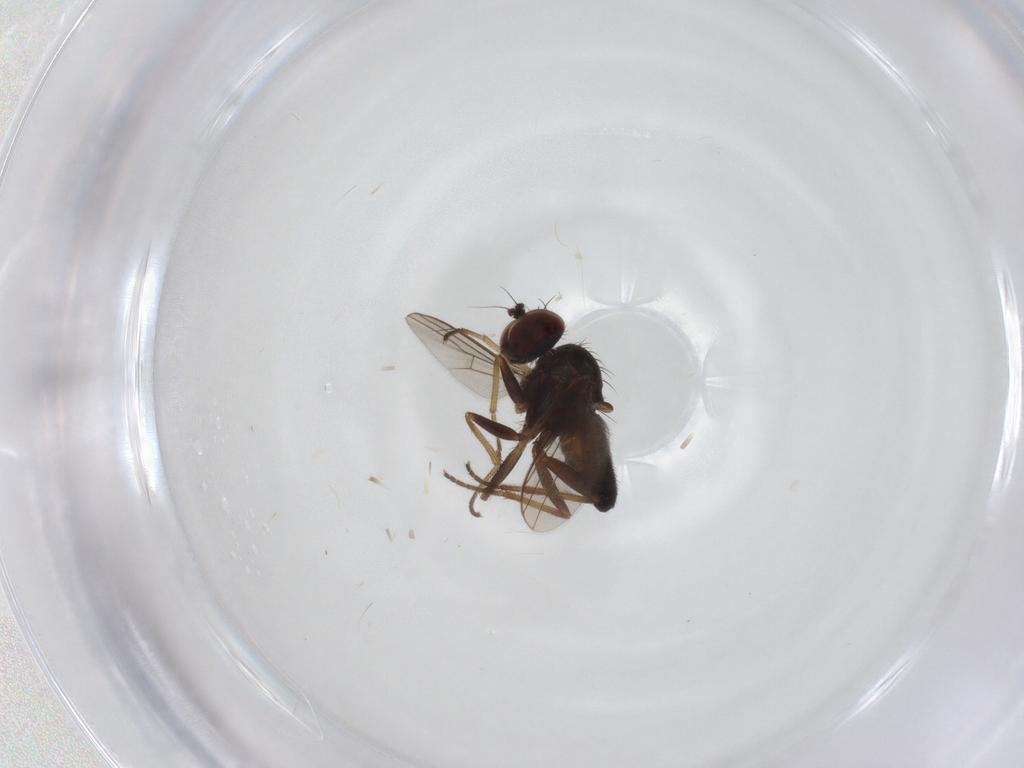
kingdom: Animalia
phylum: Arthropoda
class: Insecta
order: Diptera
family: Dolichopodidae
